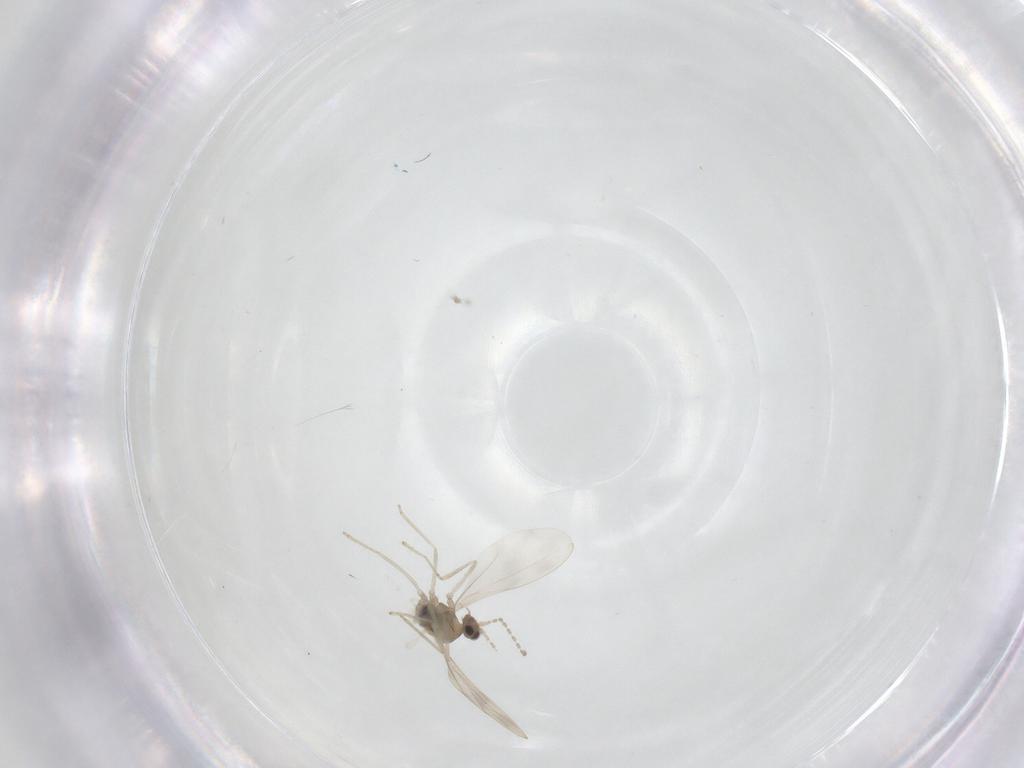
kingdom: Animalia
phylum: Arthropoda
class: Insecta
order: Diptera
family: Cecidomyiidae
